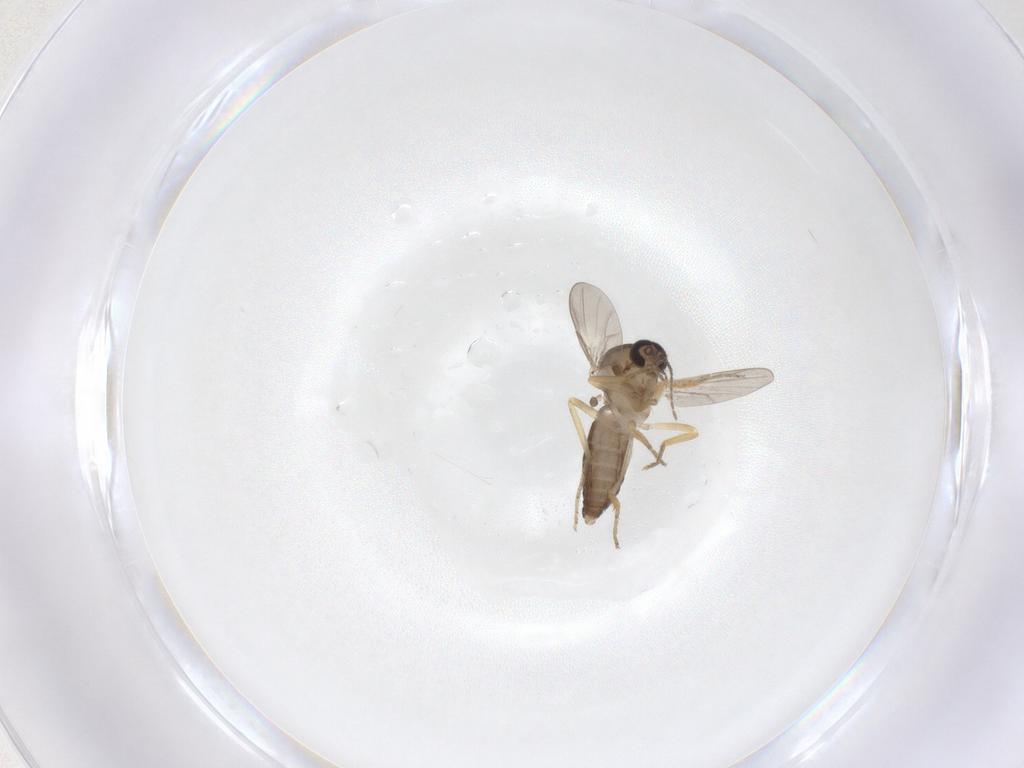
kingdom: Animalia
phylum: Arthropoda
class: Insecta
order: Diptera
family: Ceratopogonidae
